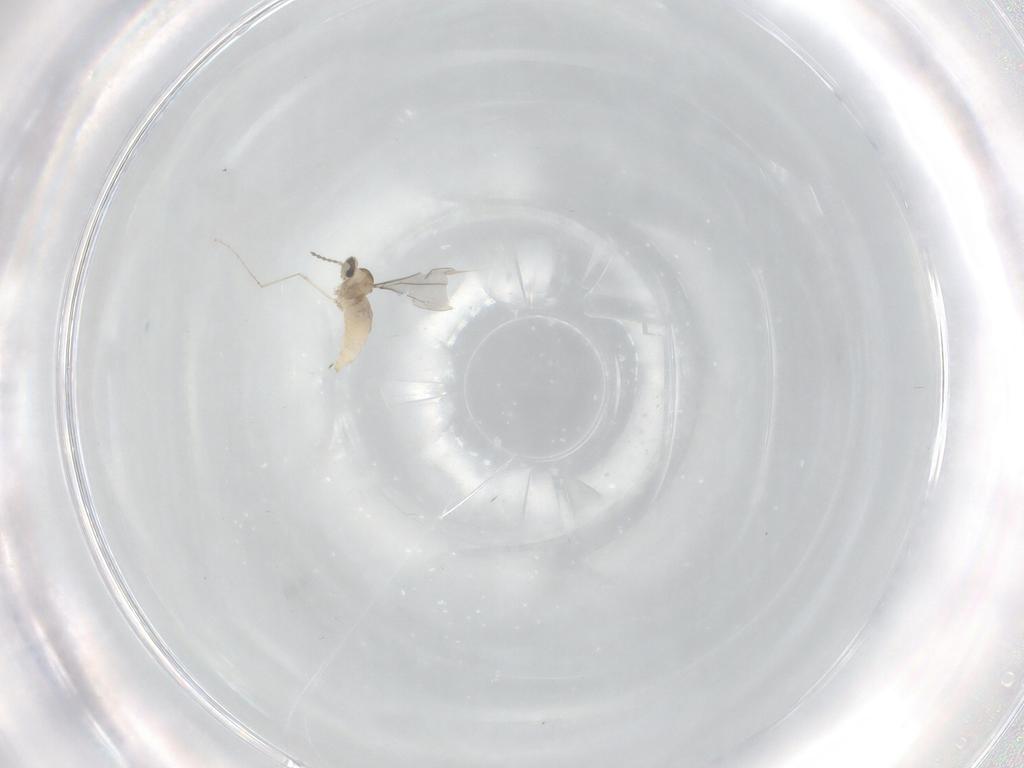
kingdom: Animalia
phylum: Arthropoda
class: Insecta
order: Diptera
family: Cecidomyiidae
